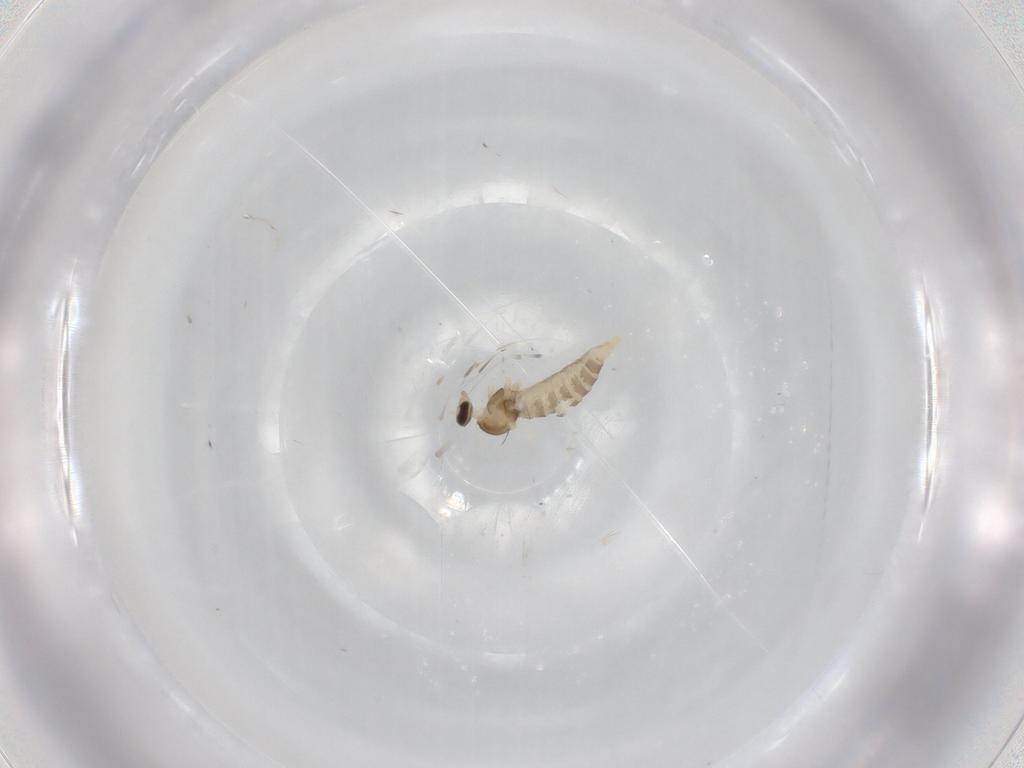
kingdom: Animalia
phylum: Arthropoda
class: Insecta
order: Diptera
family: Cecidomyiidae
